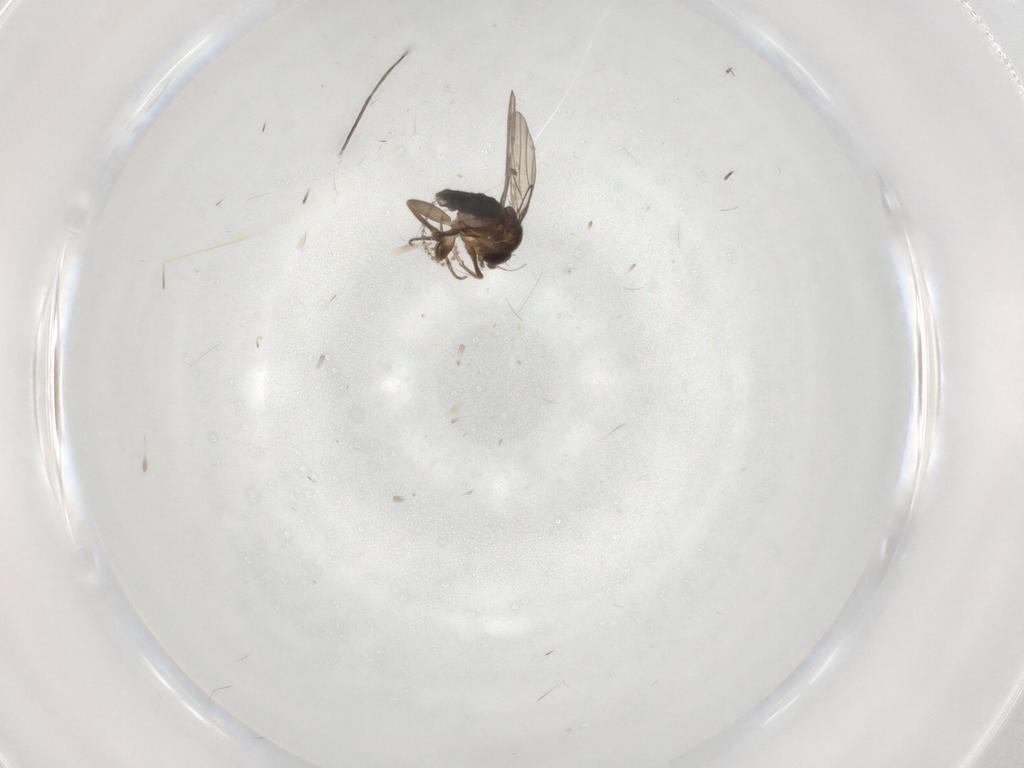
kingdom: Animalia
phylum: Arthropoda
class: Insecta
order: Diptera
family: Phoridae
